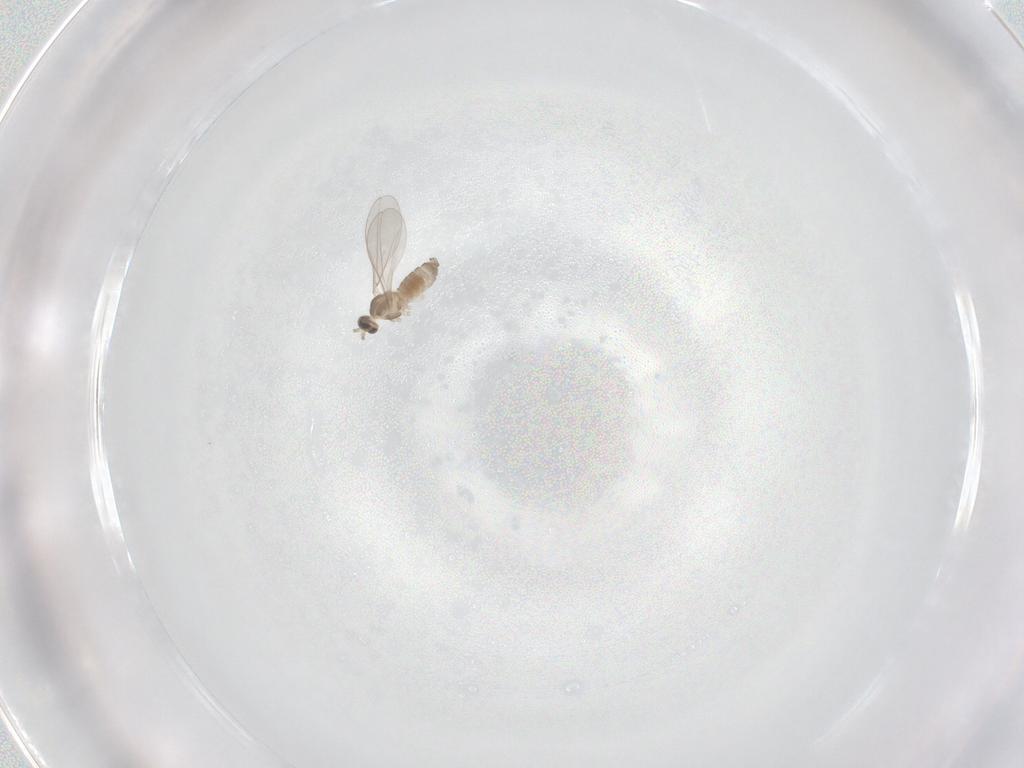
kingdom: Animalia
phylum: Arthropoda
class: Insecta
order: Diptera
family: Cecidomyiidae
